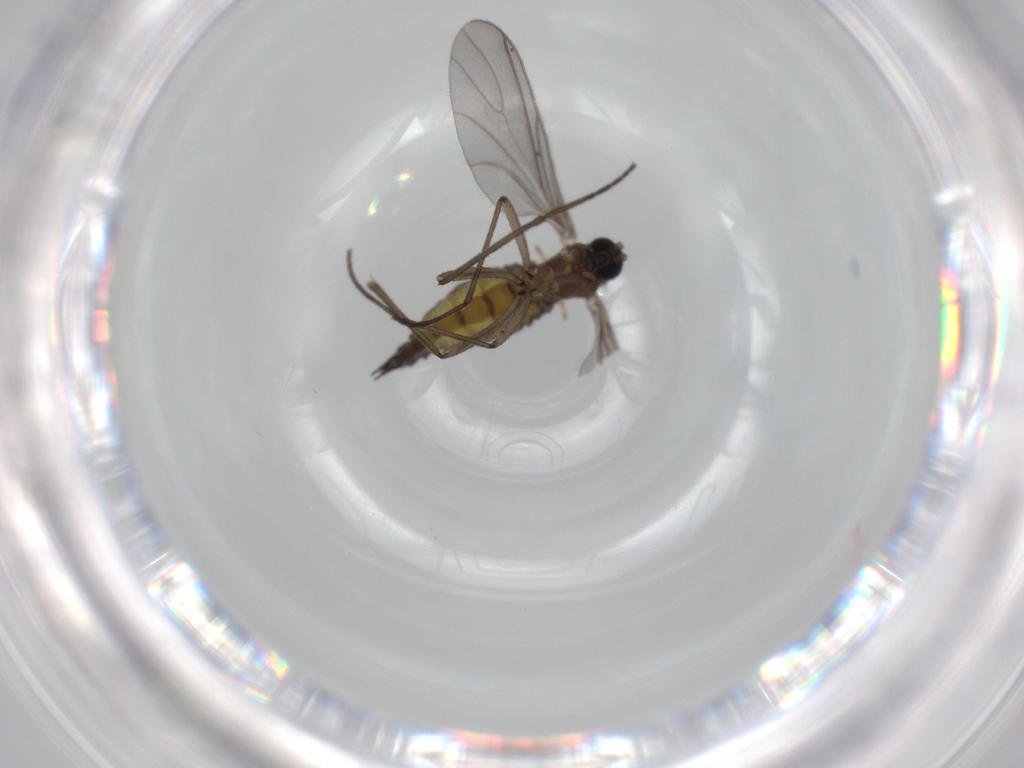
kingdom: Animalia
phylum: Arthropoda
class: Insecta
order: Diptera
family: Sciaridae
